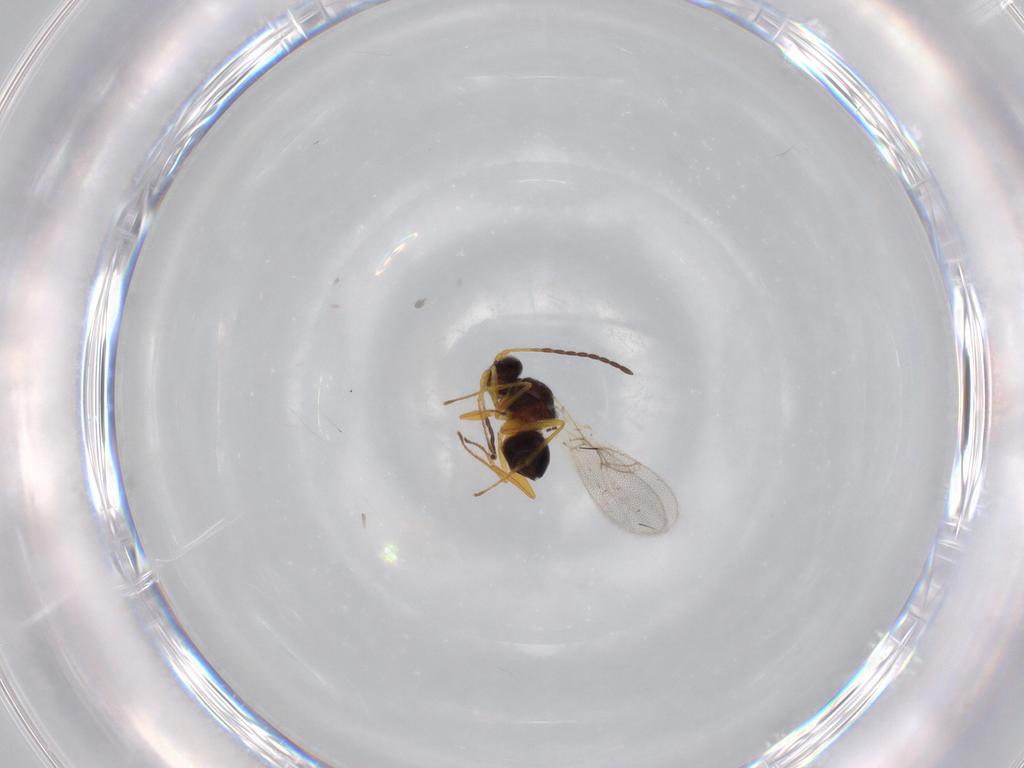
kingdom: Animalia
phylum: Arthropoda
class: Insecta
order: Hymenoptera
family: Figitidae
